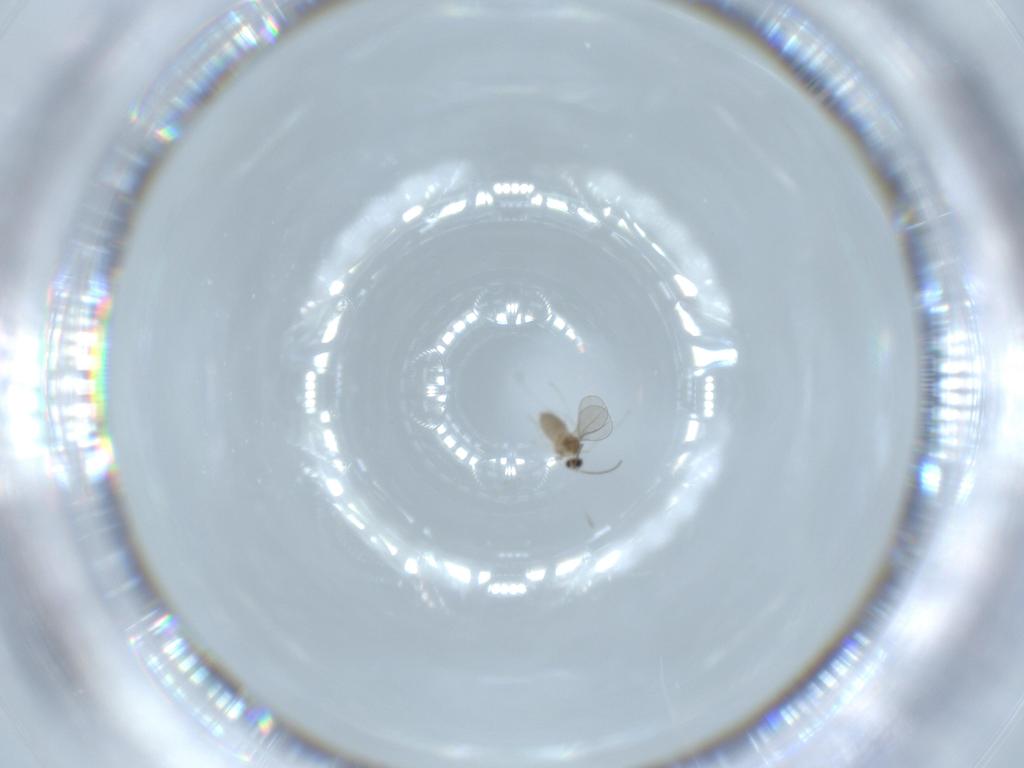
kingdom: Animalia
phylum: Arthropoda
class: Insecta
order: Diptera
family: Cecidomyiidae
